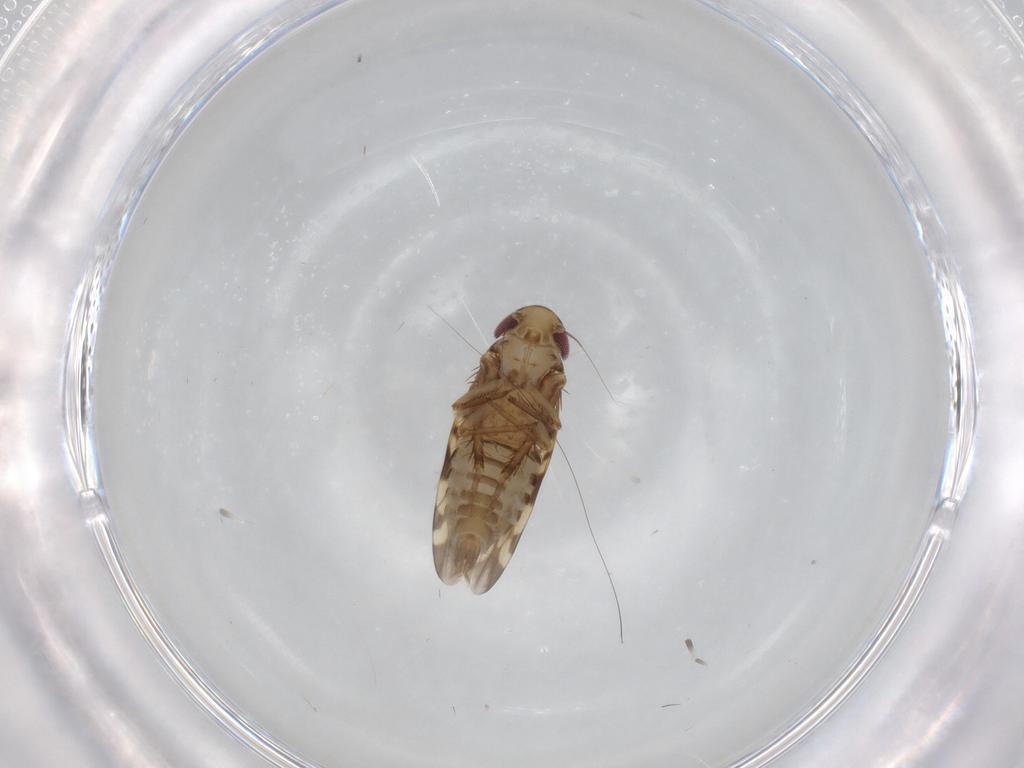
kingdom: Animalia
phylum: Arthropoda
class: Insecta
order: Hemiptera
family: Cicadellidae
